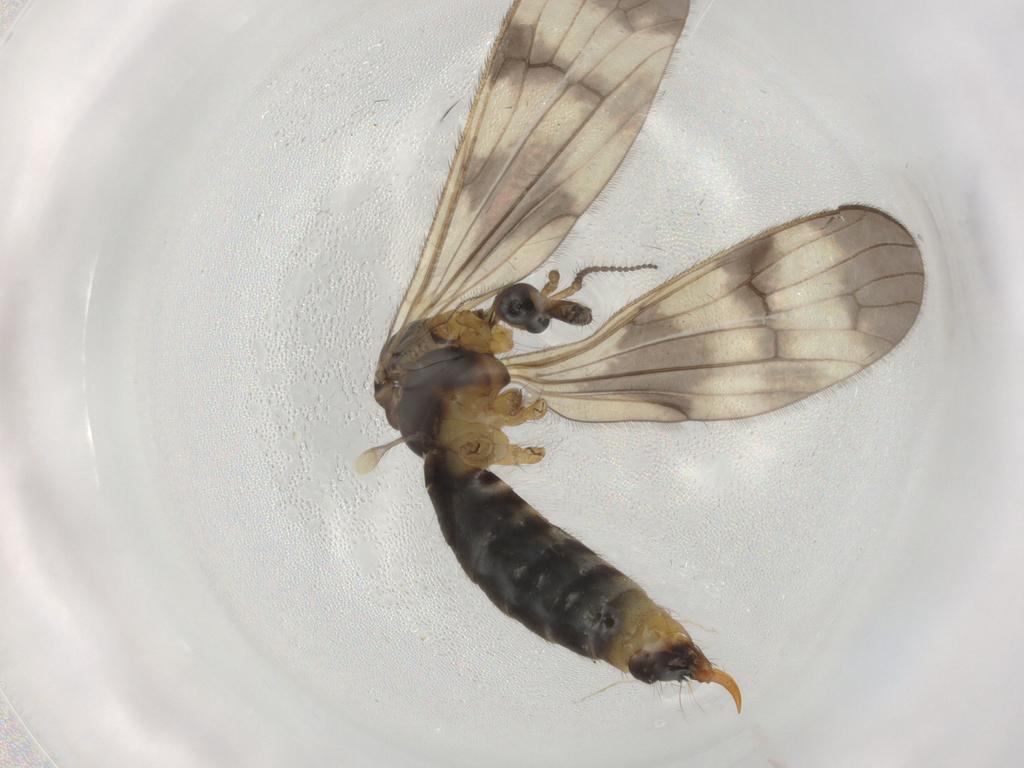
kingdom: Animalia
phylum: Arthropoda
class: Insecta
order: Diptera
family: Limoniidae
